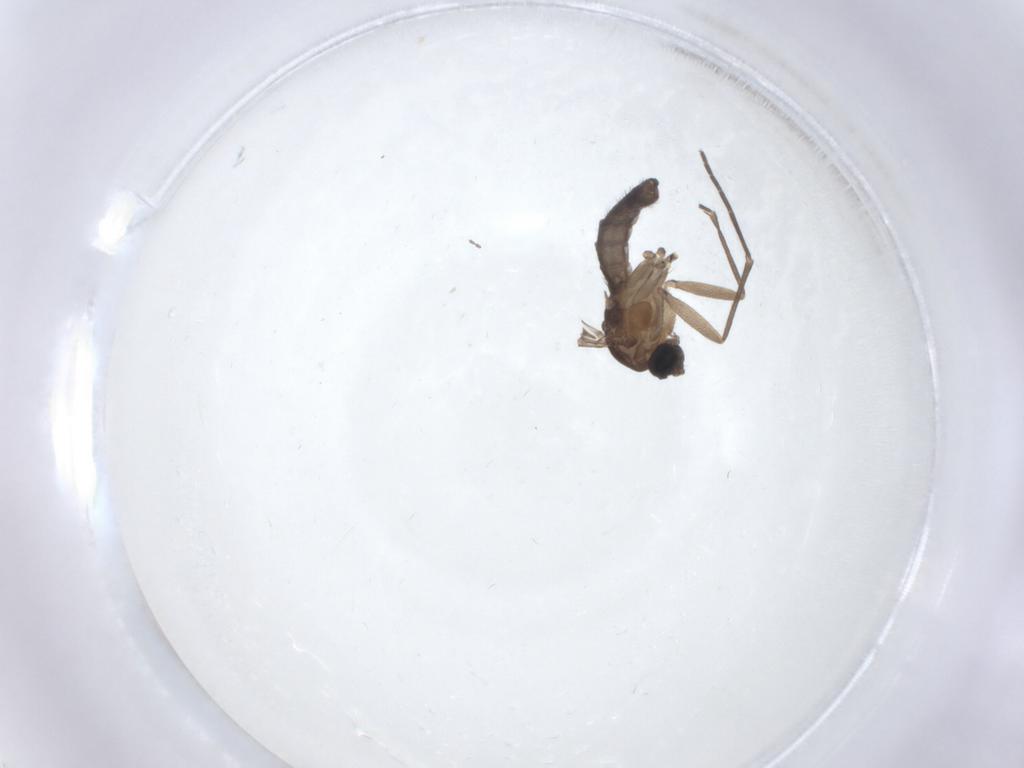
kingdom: Animalia
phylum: Arthropoda
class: Insecta
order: Diptera
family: Sciaridae
